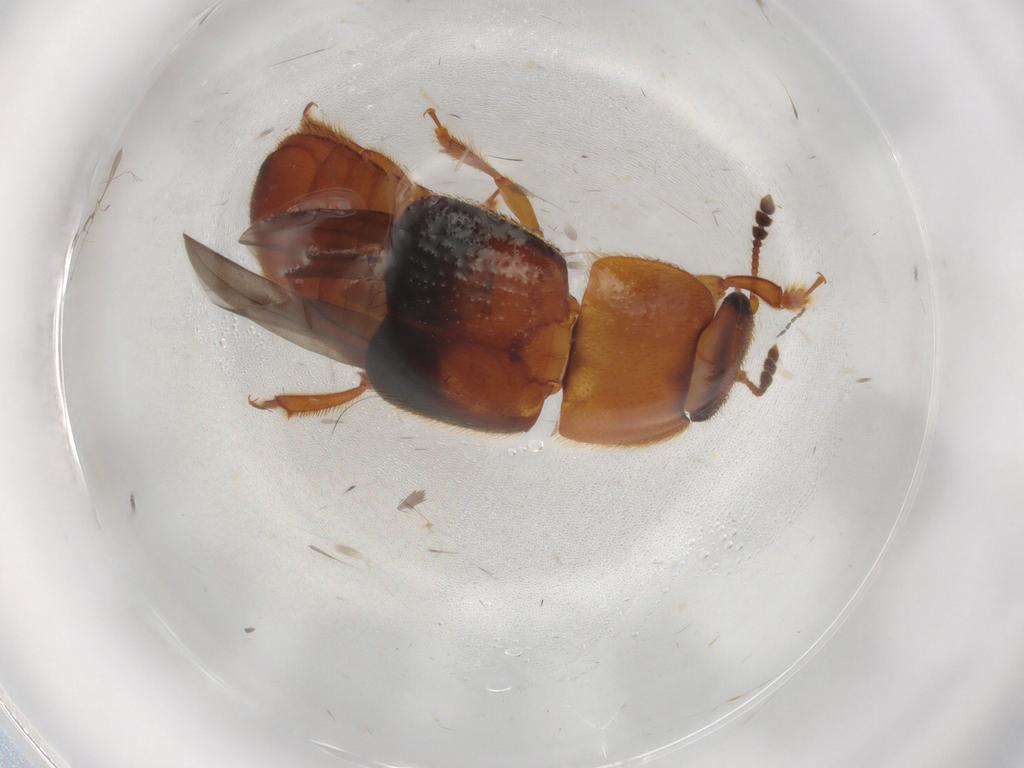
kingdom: Animalia
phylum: Arthropoda
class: Insecta
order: Coleoptera
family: Nitidulidae
